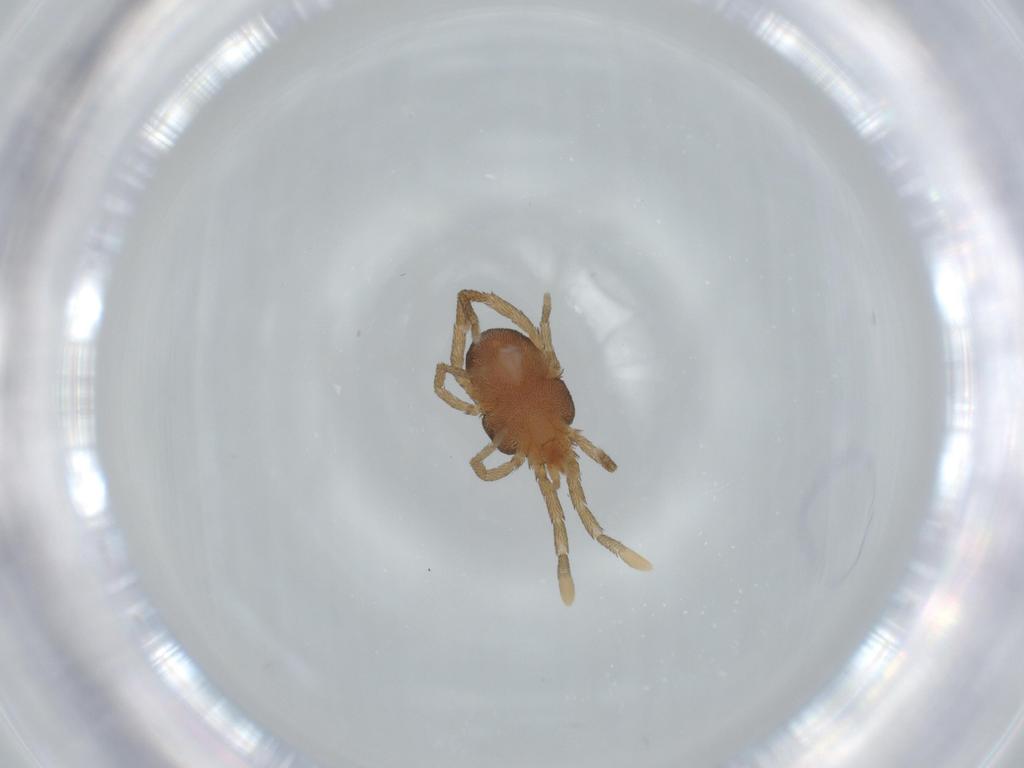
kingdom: Animalia
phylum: Arthropoda
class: Arachnida
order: Trombidiformes
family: Erythraeidae
